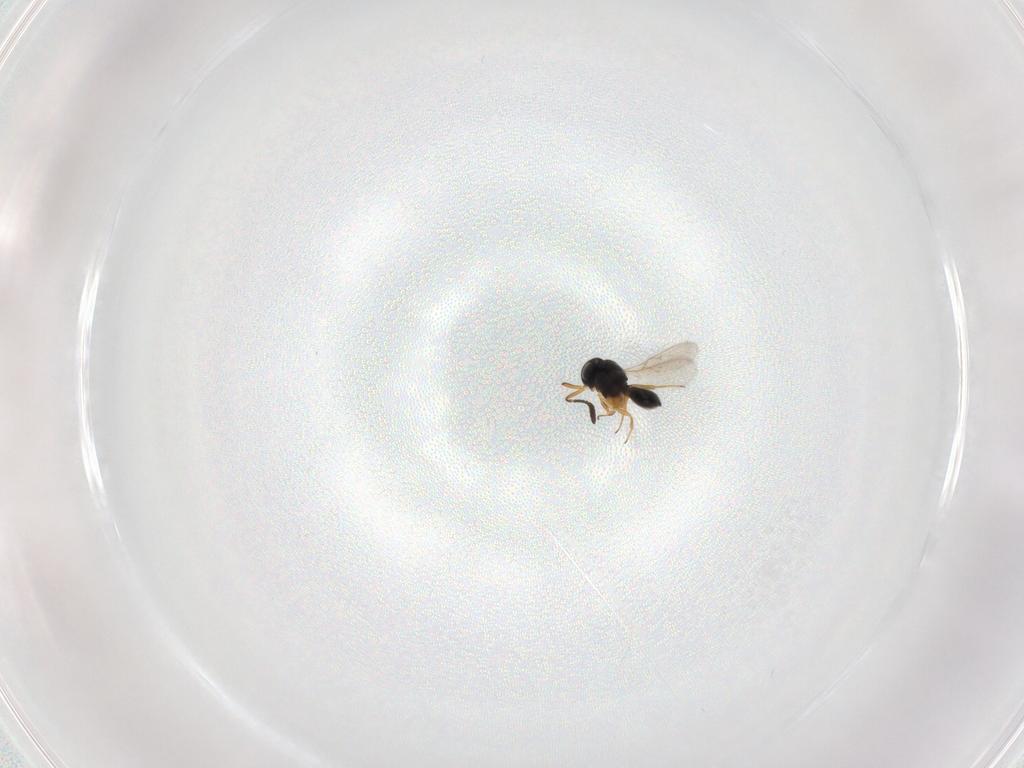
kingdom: Animalia
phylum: Arthropoda
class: Insecta
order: Hymenoptera
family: Scelionidae
